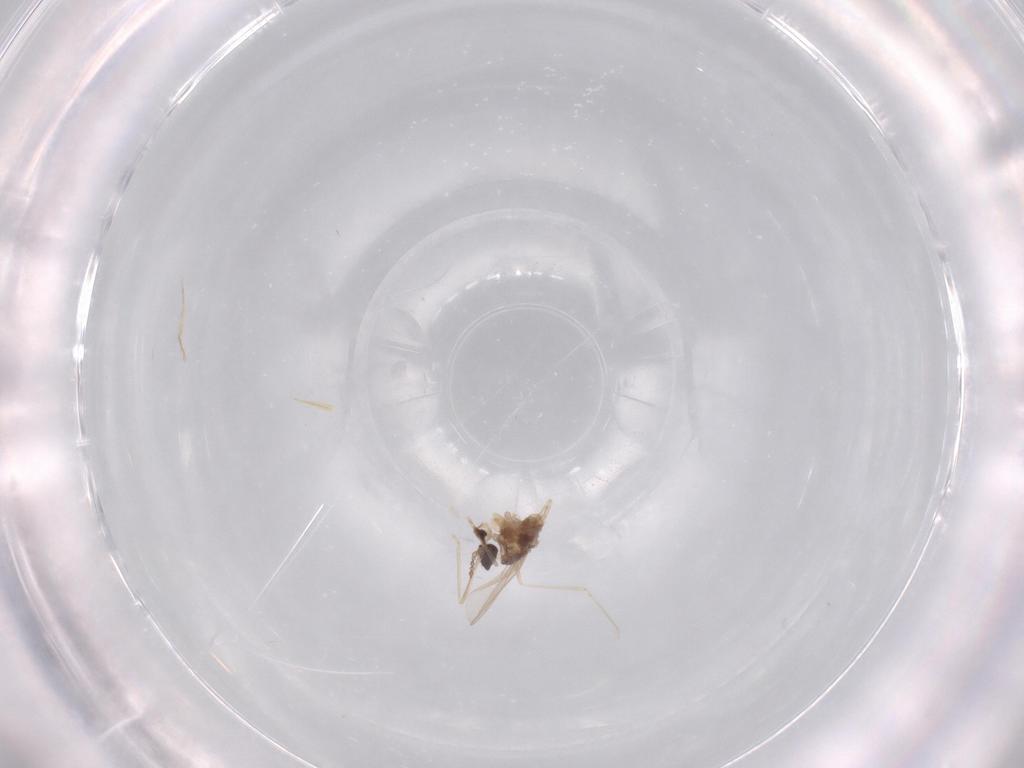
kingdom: Animalia
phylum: Arthropoda
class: Insecta
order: Diptera
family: Cecidomyiidae
